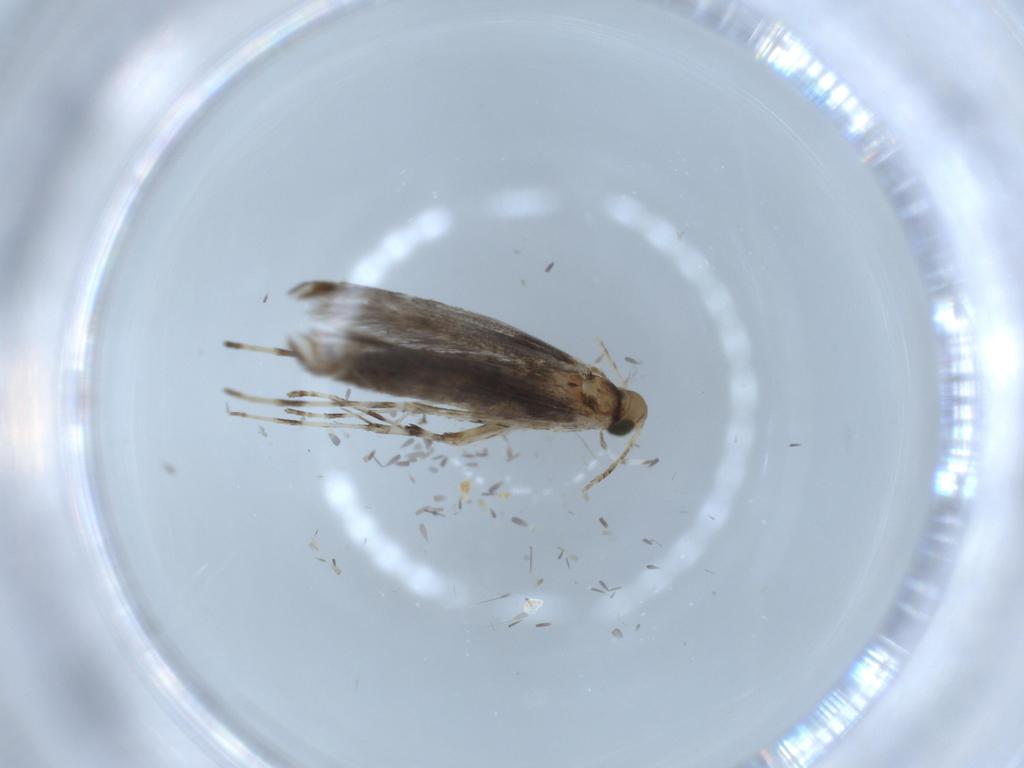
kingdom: Animalia
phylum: Arthropoda
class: Insecta
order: Lepidoptera
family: Gracillariidae
